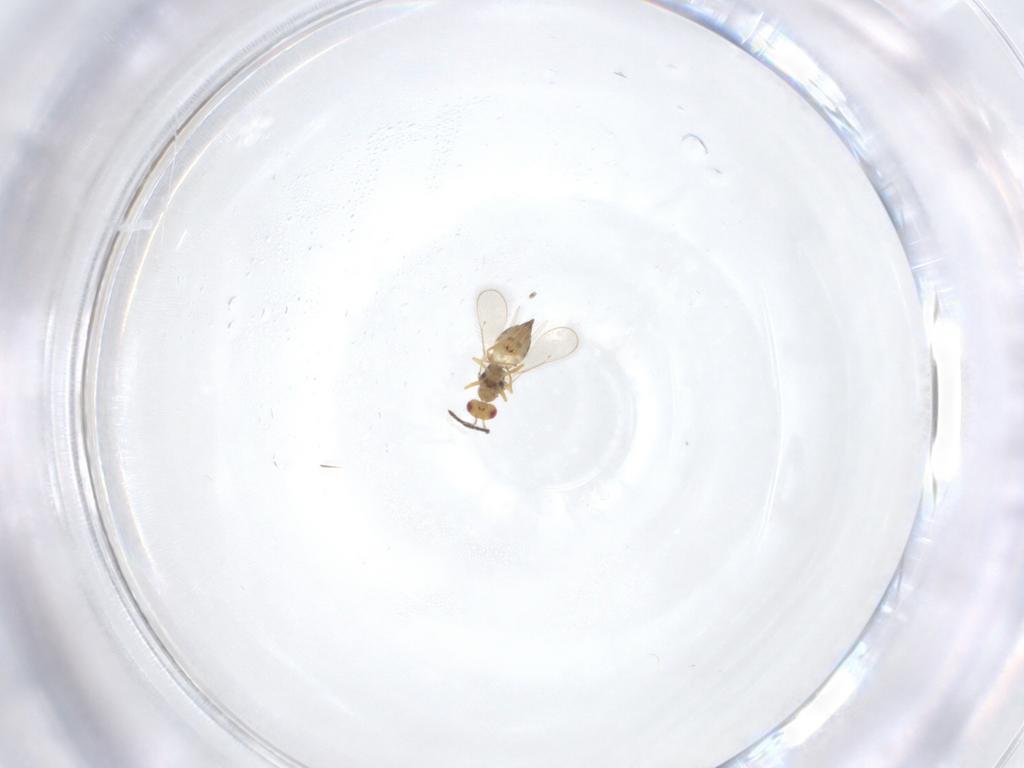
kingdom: Animalia
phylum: Arthropoda
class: Insecta
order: Hymenoptera
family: Eulophidae
